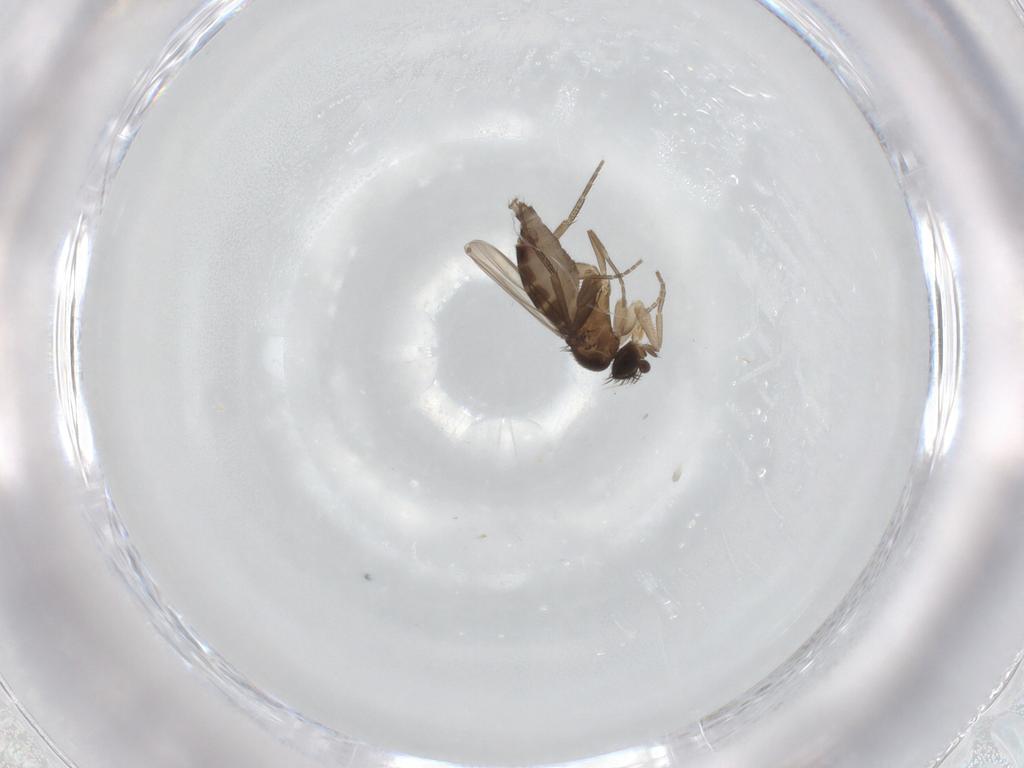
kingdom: Animalia
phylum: Arthropoda
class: Insecta
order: Diptera
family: Phoridae
